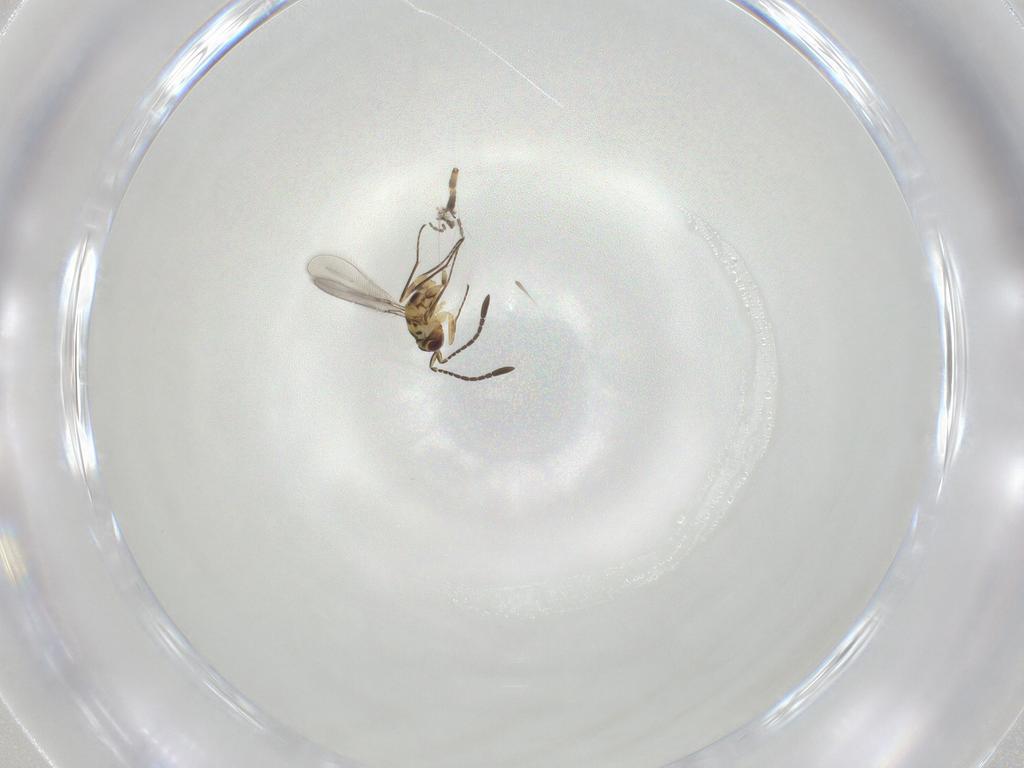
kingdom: Animalia
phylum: Arthropoda
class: Insecta
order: Hymenoptera
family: Mymaridae
